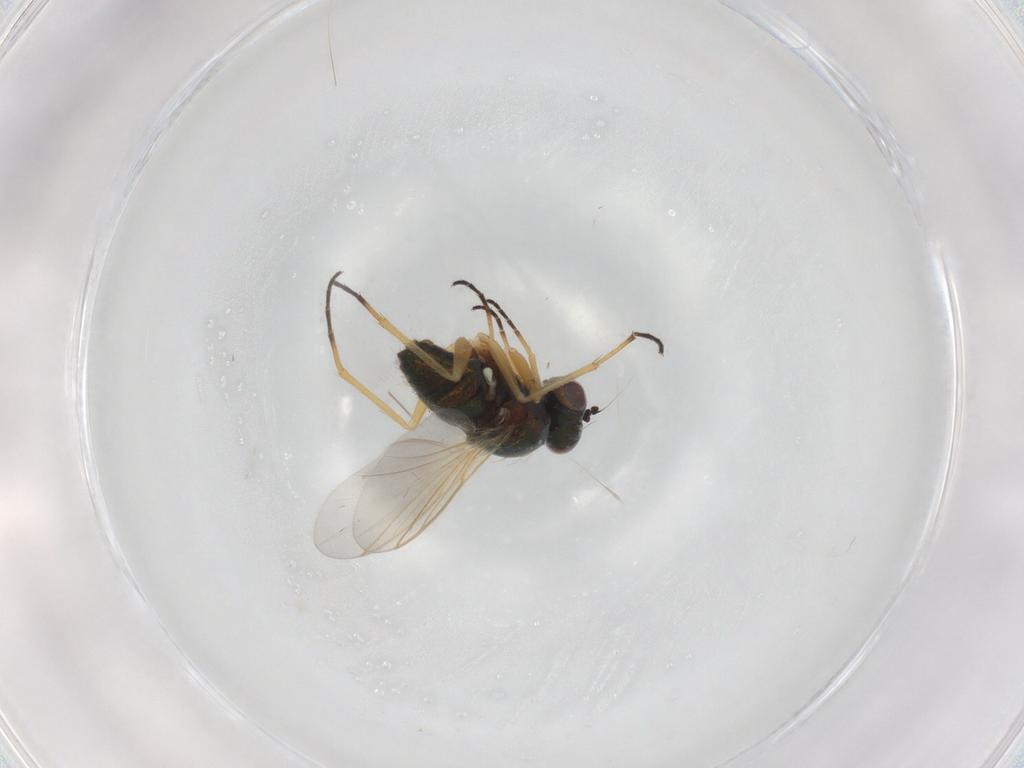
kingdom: Animalia
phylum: Arthropoda
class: Insecta
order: Diptera
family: Dolichopodidae
